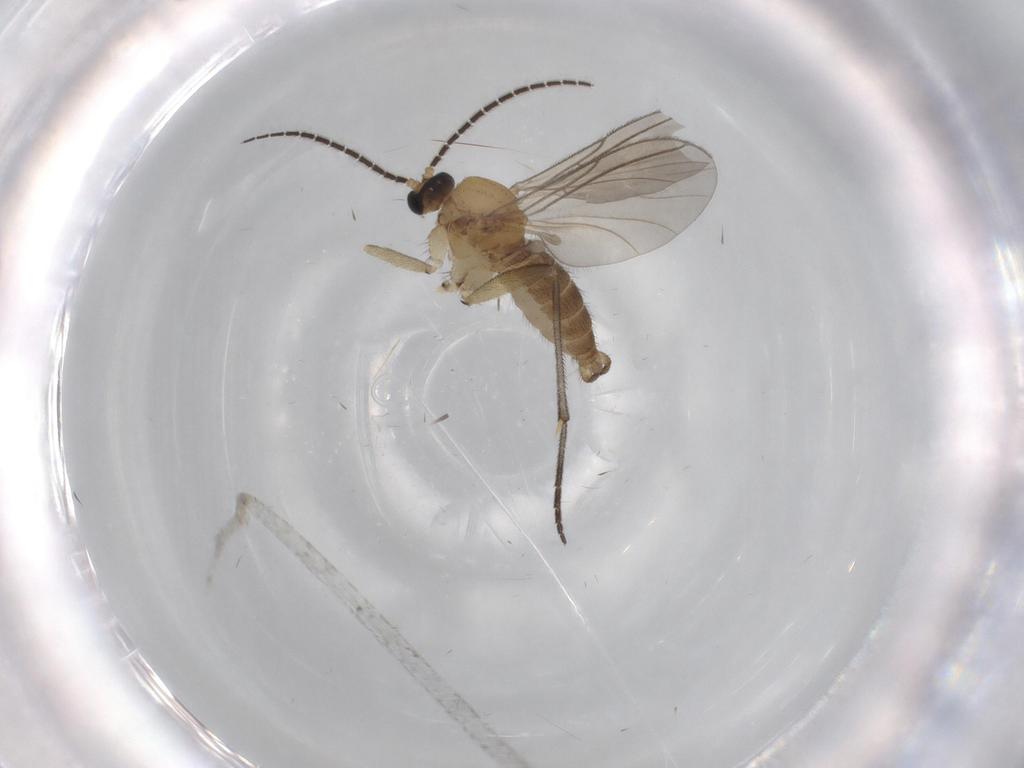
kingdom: Animalia
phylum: Arthropoda
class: Insecta
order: Diptera
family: Sciaridae
